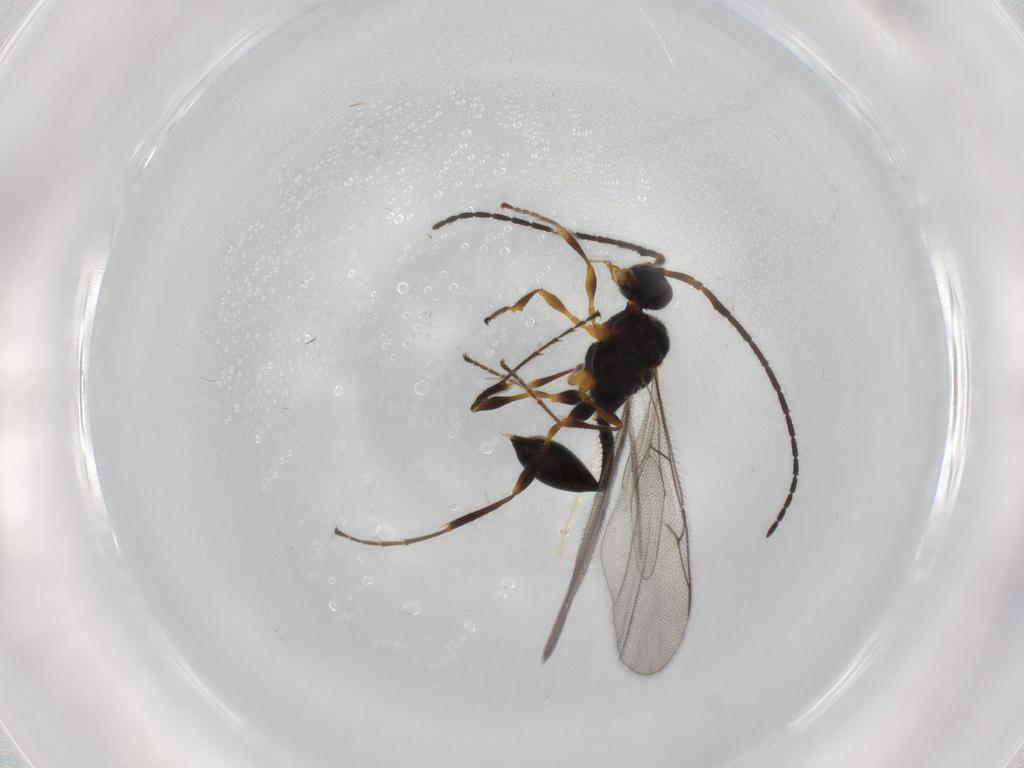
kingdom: Animalia
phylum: Arthropoda
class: Insecta
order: Hymenoptera
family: Diapriidae
